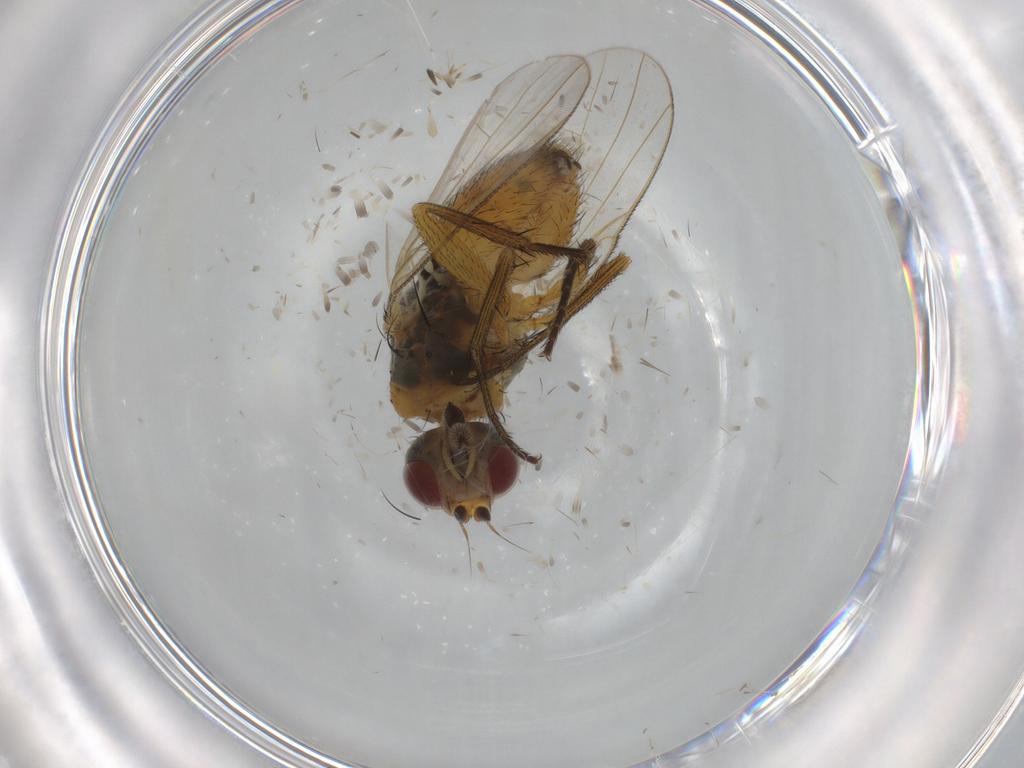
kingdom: Animalia
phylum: Arthropoda
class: Insecta
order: Diptera
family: Muscidae
